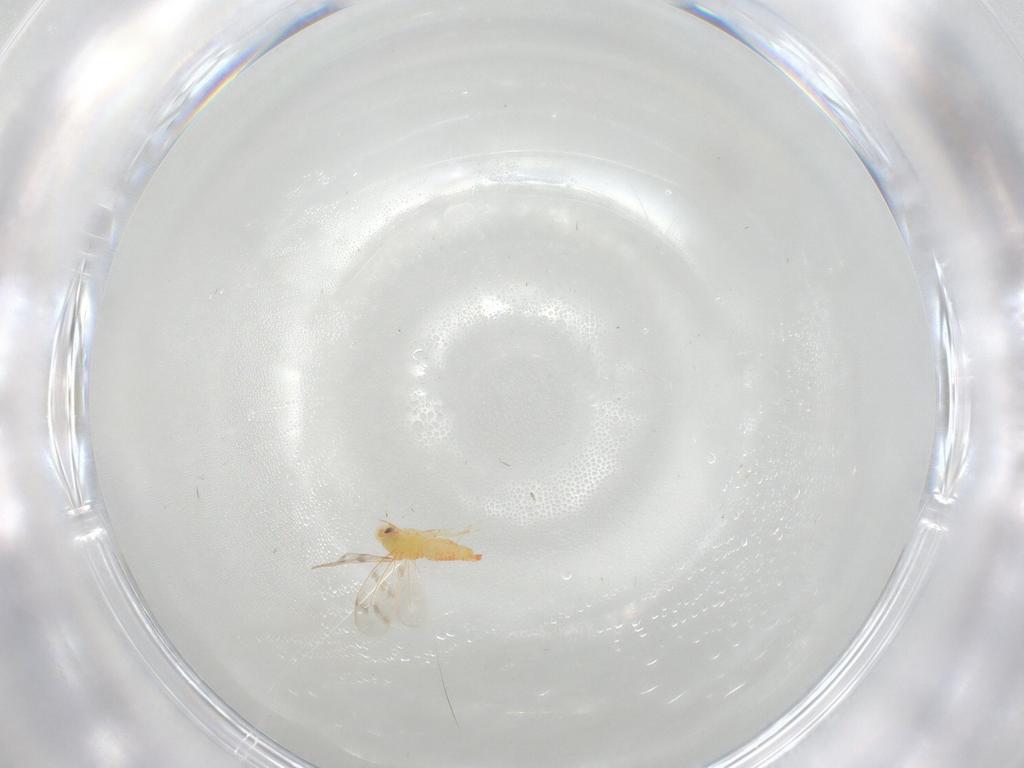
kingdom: Animalia
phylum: Arthropoda
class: Insecta
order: Hemiptera
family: Aleyrodidae
